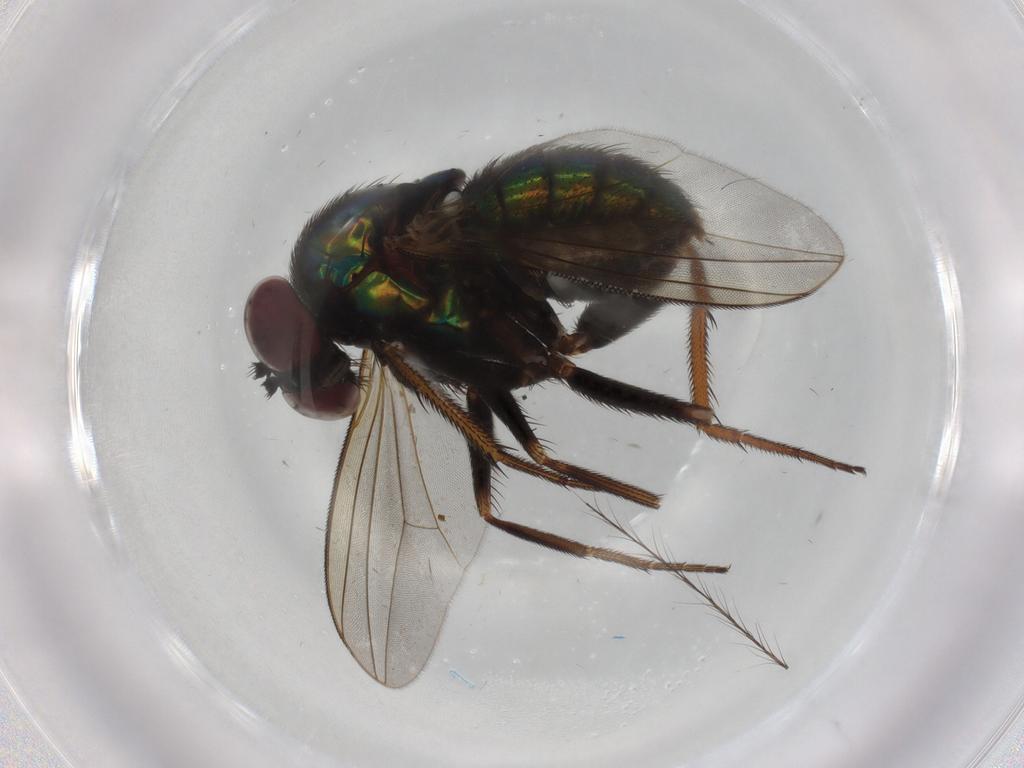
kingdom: Animalia
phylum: Arthropoda
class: Insecta
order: Diptera
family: Dolichopodidae
